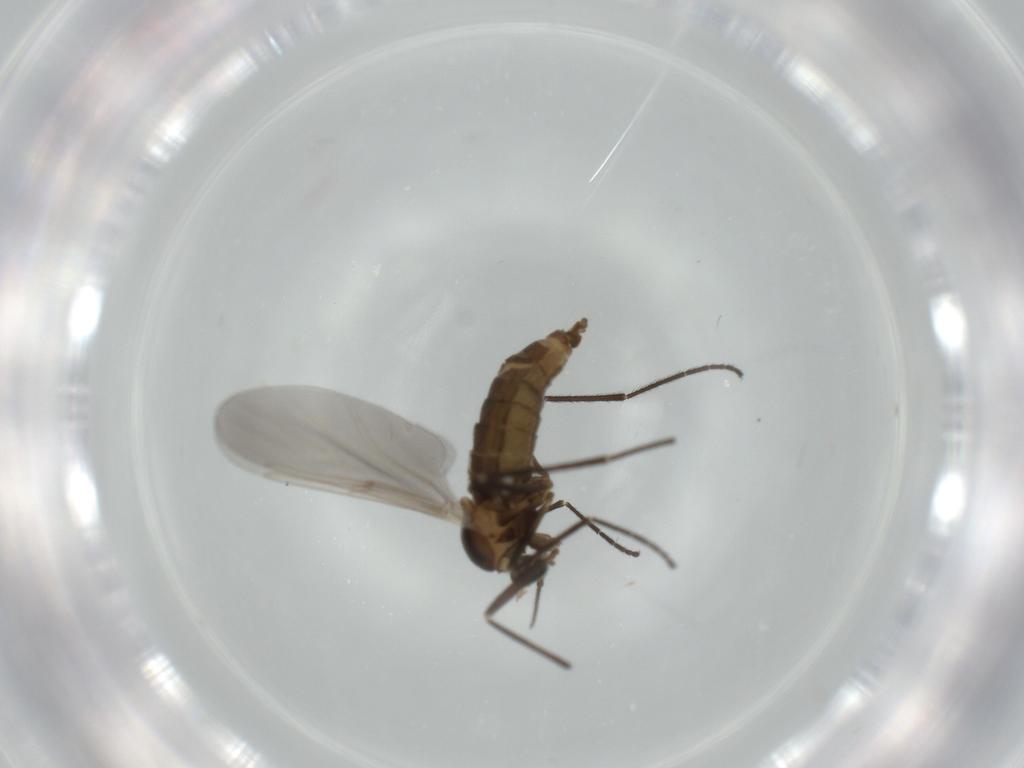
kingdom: Animalia
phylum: Arthropoda
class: Insecta
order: Diptera
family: Cecidomyiidae
